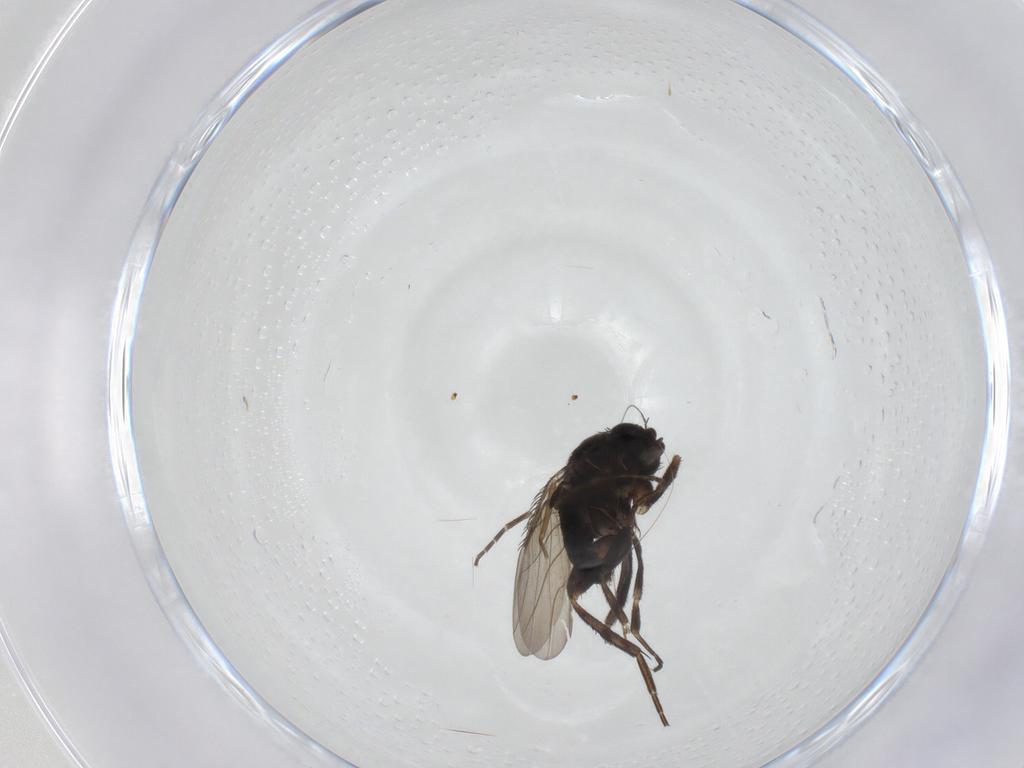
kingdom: Animalia
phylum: Arthropoda
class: Insecta
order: Diptera
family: Phoridae
